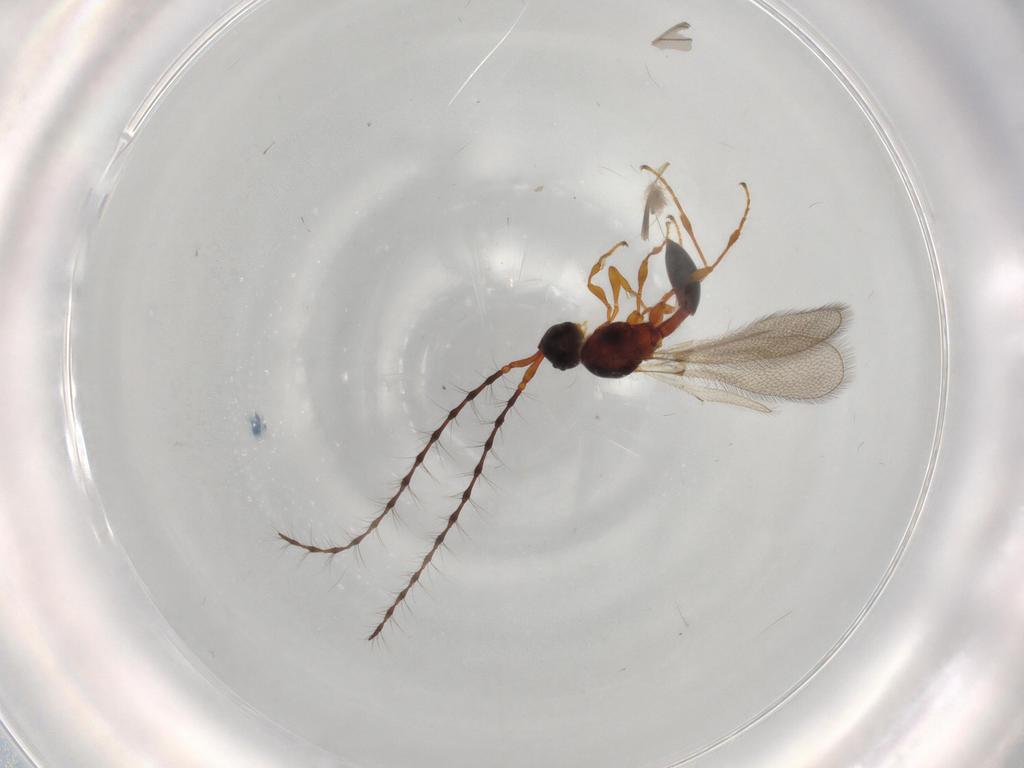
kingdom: Animalia
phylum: Arthropoda
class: Insecta
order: Hymenoptera
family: Diapriidae
